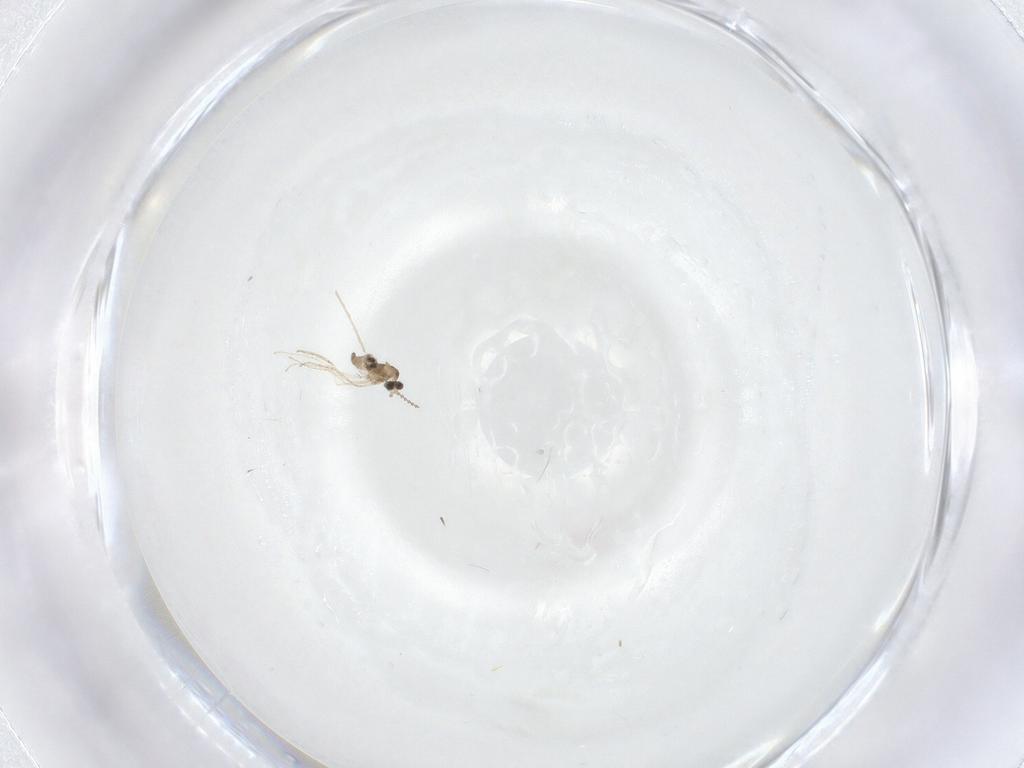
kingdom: Animalia
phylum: Arthropoda
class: Insecta
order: Diptera
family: Cecidomyiidae
